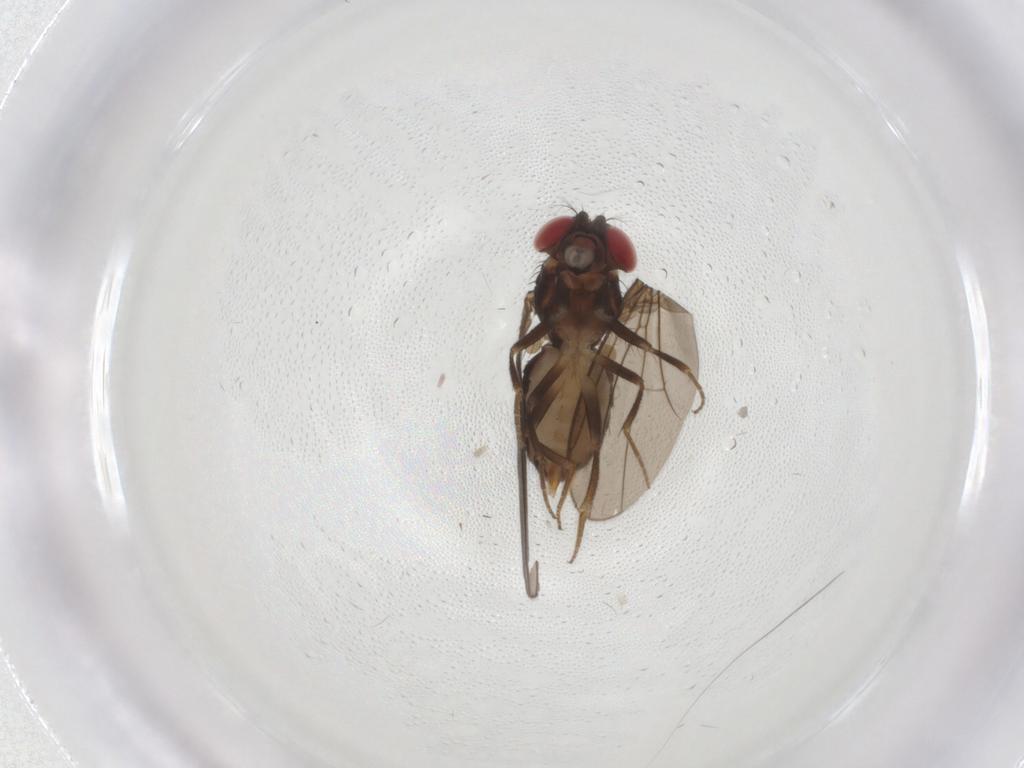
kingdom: Animalia
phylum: Arthropoda
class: Insecta
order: Diptera
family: Drosophilidae
